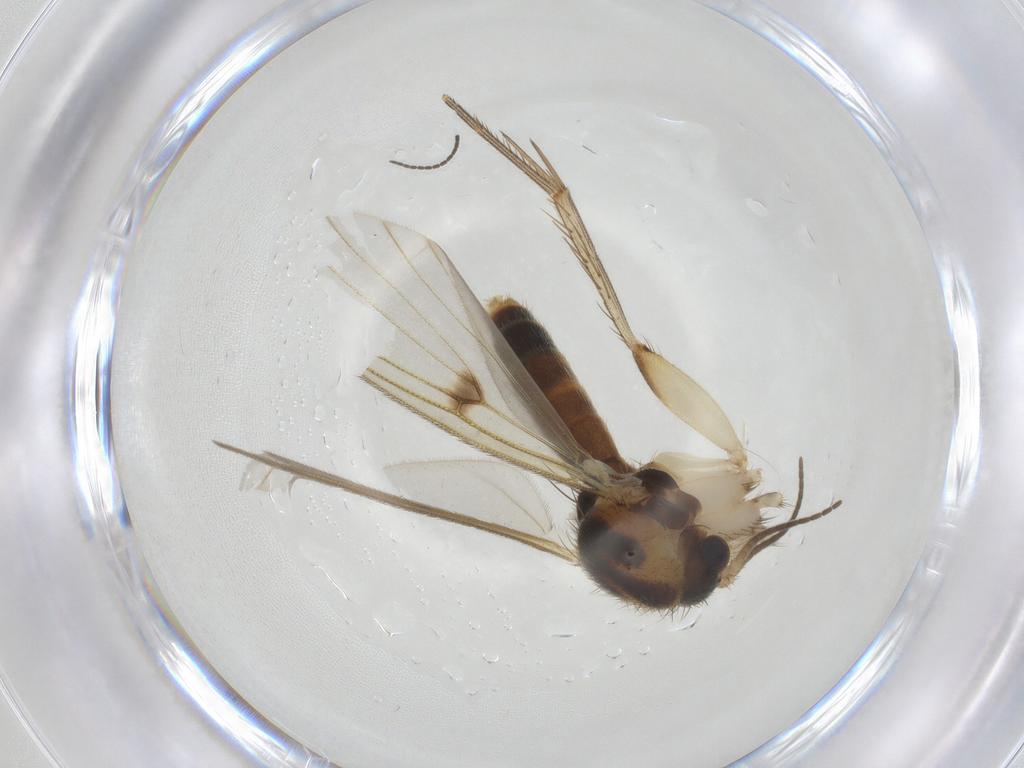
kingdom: Animalia
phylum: Arthropoda
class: Insecta
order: Diptera
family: Mycetophilidae
